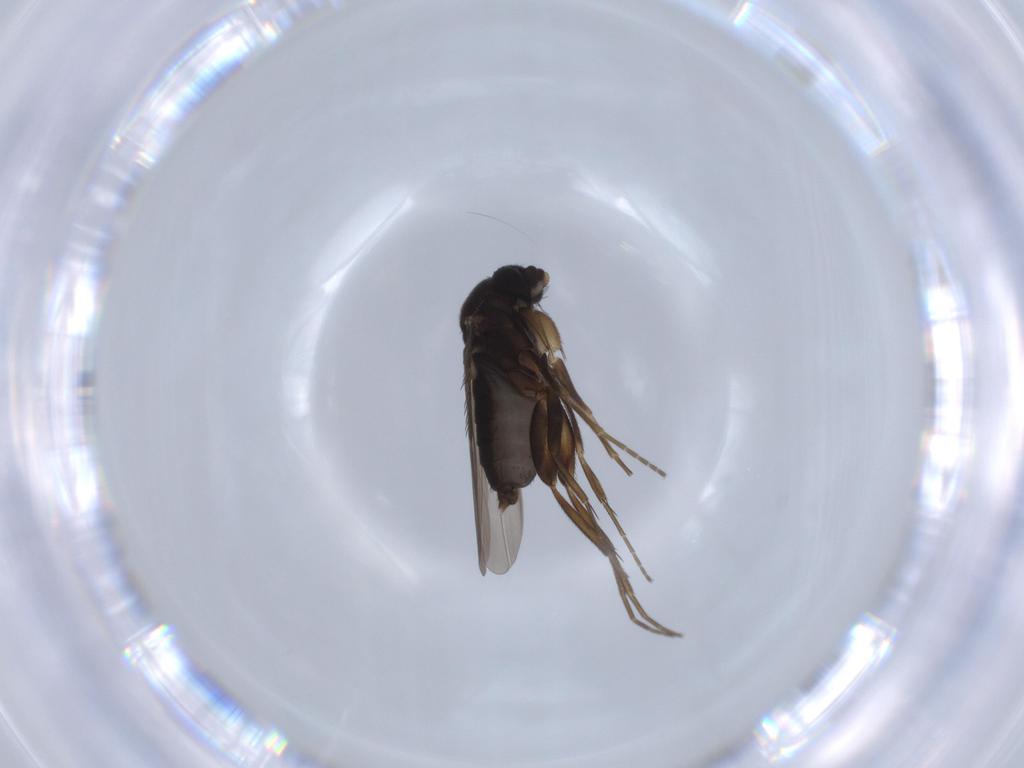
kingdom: Animalia
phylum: Arthropoda
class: Insecta
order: Diptera
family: Phoridae
